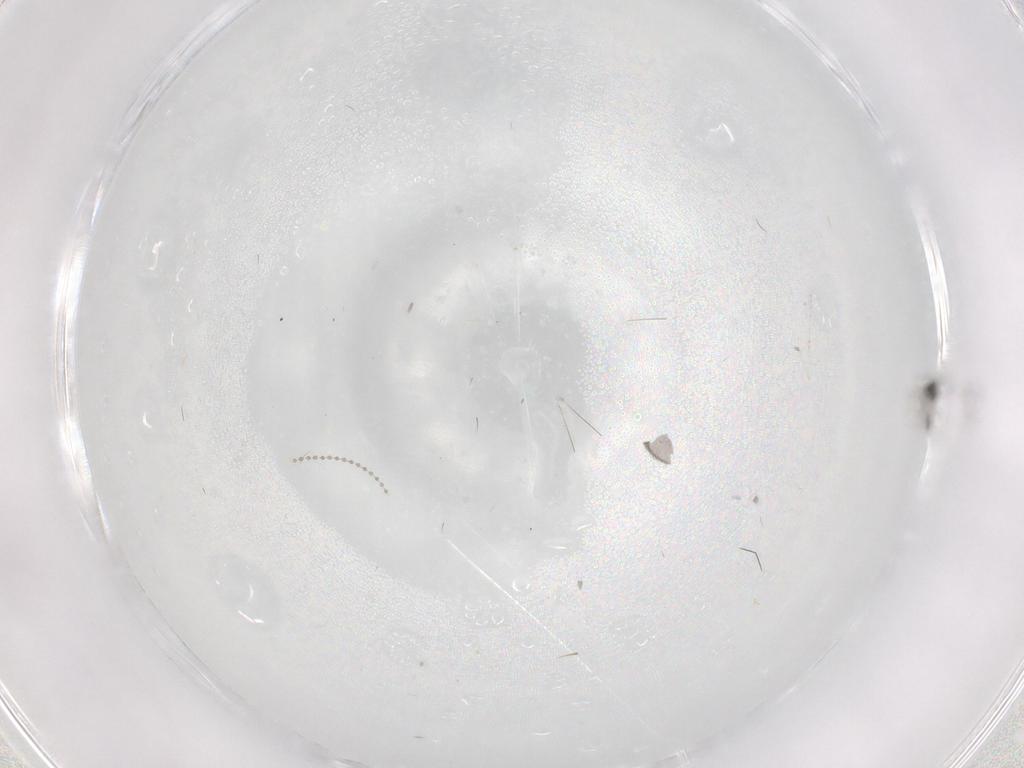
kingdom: Animalia
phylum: Arthropoda
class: Insecta
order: Diptera
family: Cecidomyiidae
